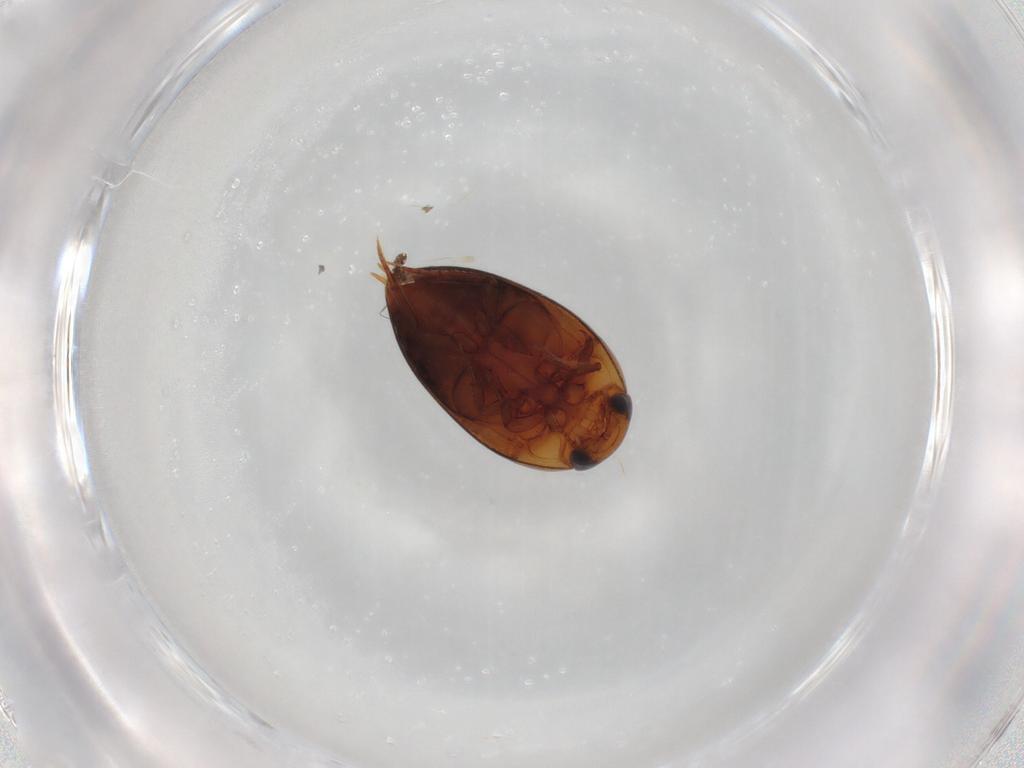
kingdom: Animalia
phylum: Arthropoda
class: Insecta
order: Coleoptera
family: Noteridae
